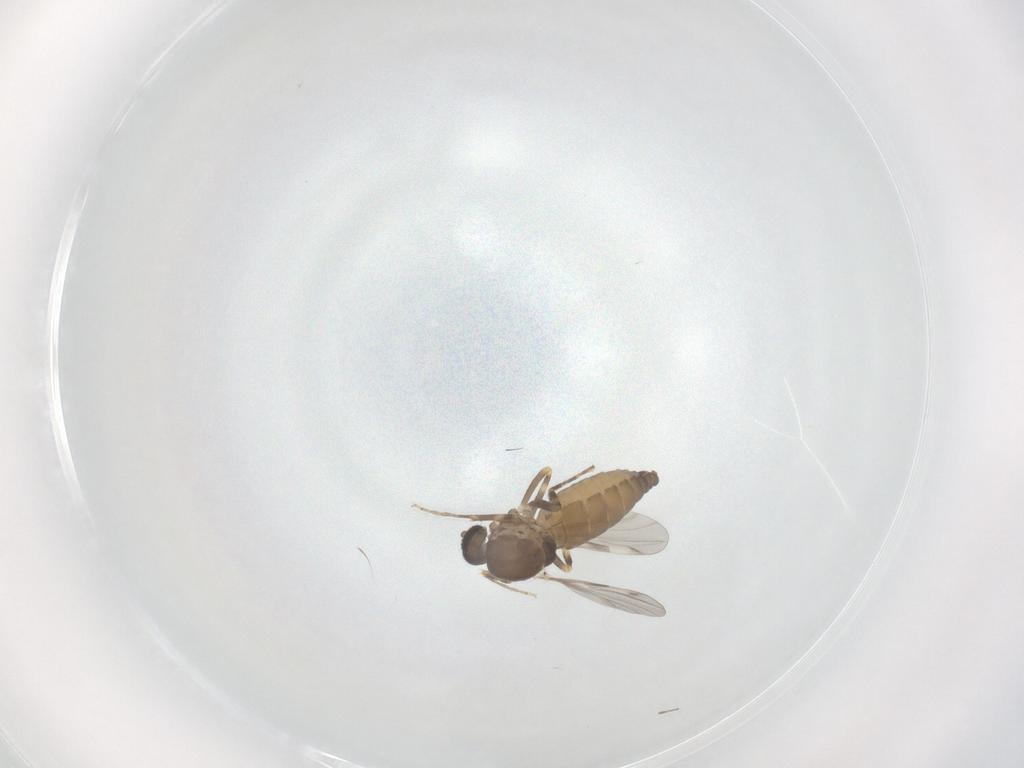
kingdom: Animalia
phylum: Arthropoda
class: Insecta
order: Diptera
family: Ceratopogonidae
